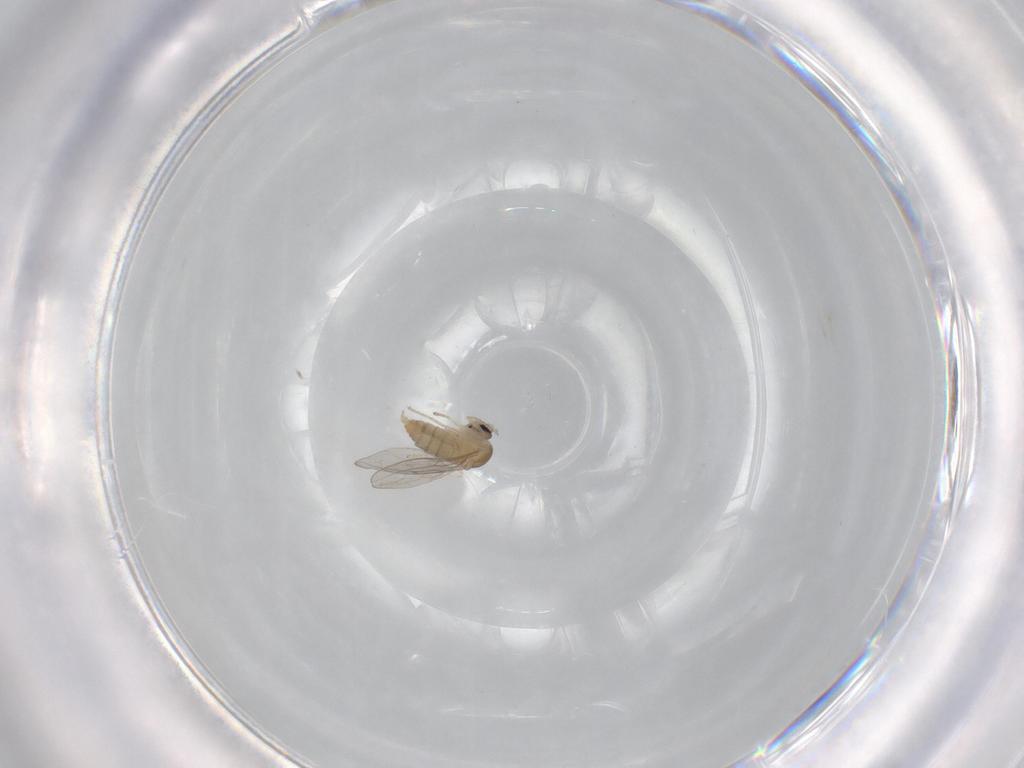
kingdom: Animalia
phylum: Arthropoda
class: Insecta
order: Diptera
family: Cecidomyiidae
